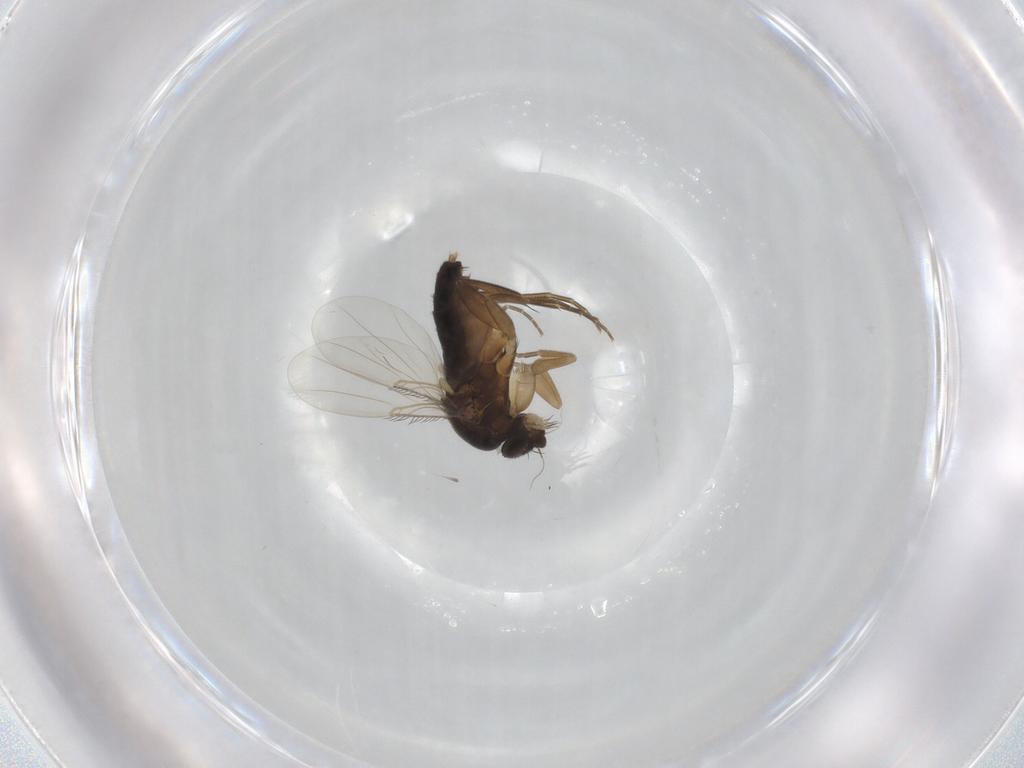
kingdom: Animalia
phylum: Arthropoda
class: Insecta
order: Diptera
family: Phoridae
